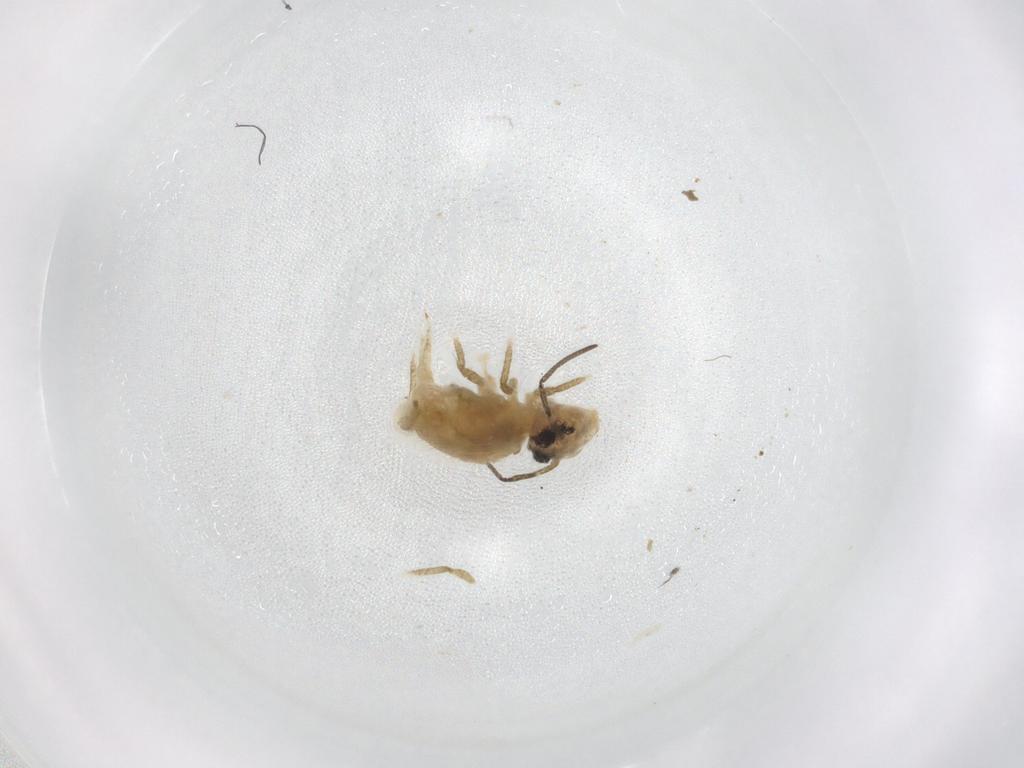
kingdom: Animalia
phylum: Arthropoda
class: Collembola
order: Symphypleona
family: Sminthuridae
